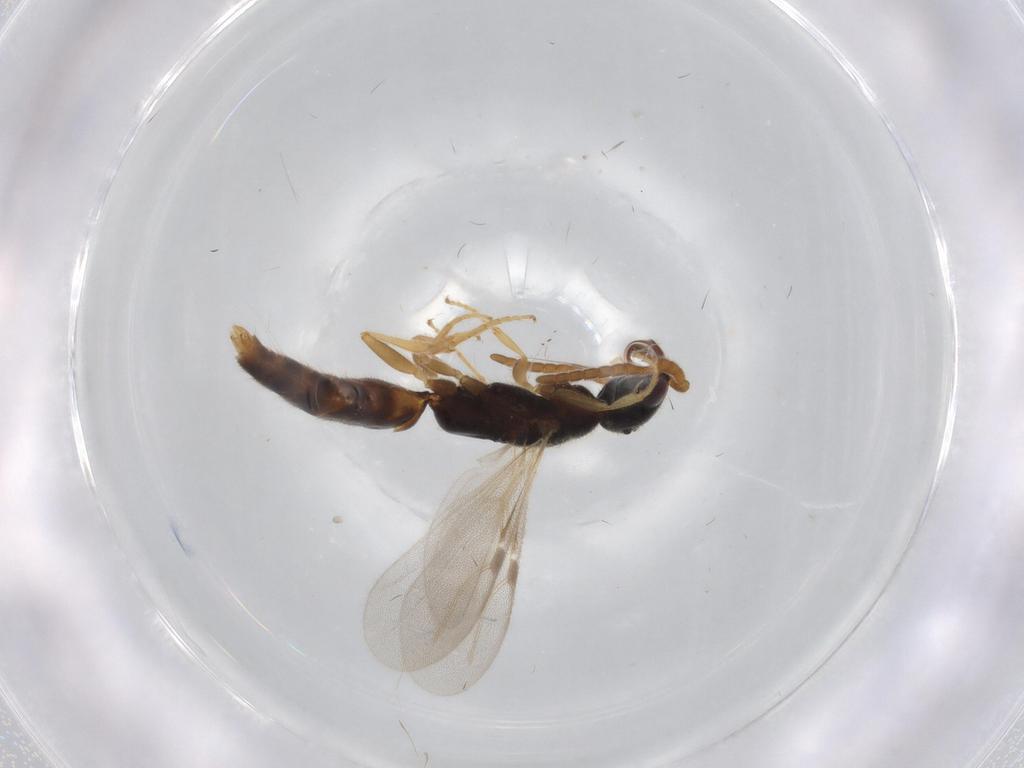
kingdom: Animalia
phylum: Arthropoda
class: Insecta
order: Hymenoptera
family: Bethylidae
